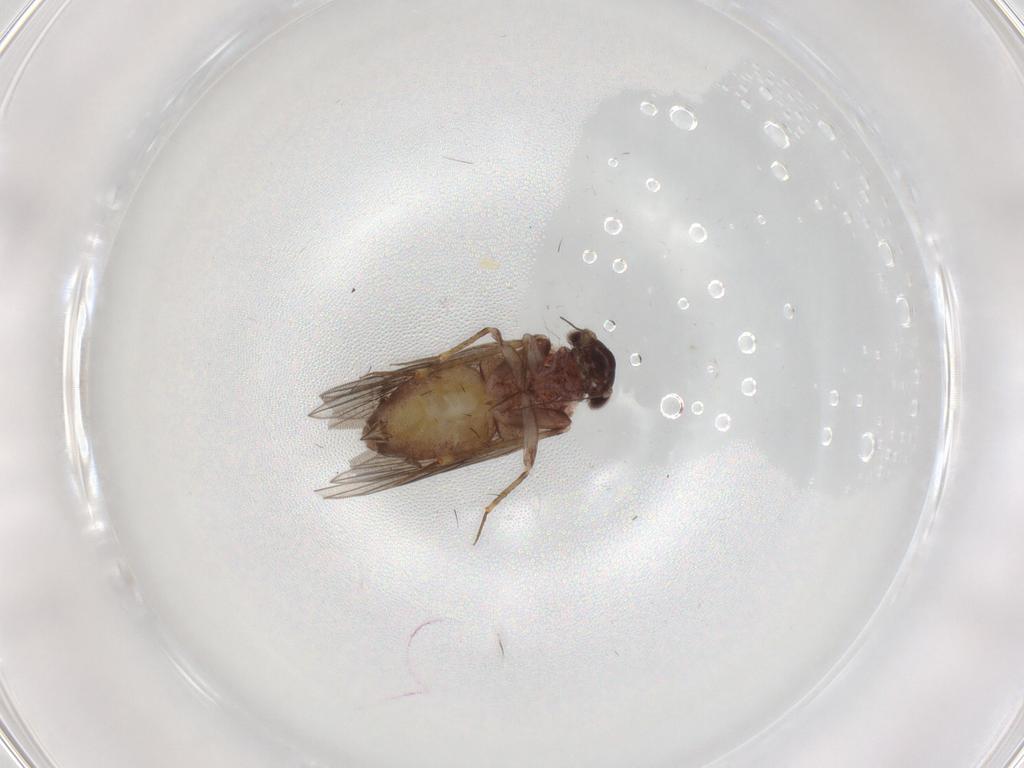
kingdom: Animalia
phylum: Arthropoda
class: Insecta
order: Psocodea
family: Lepidopsocidae
